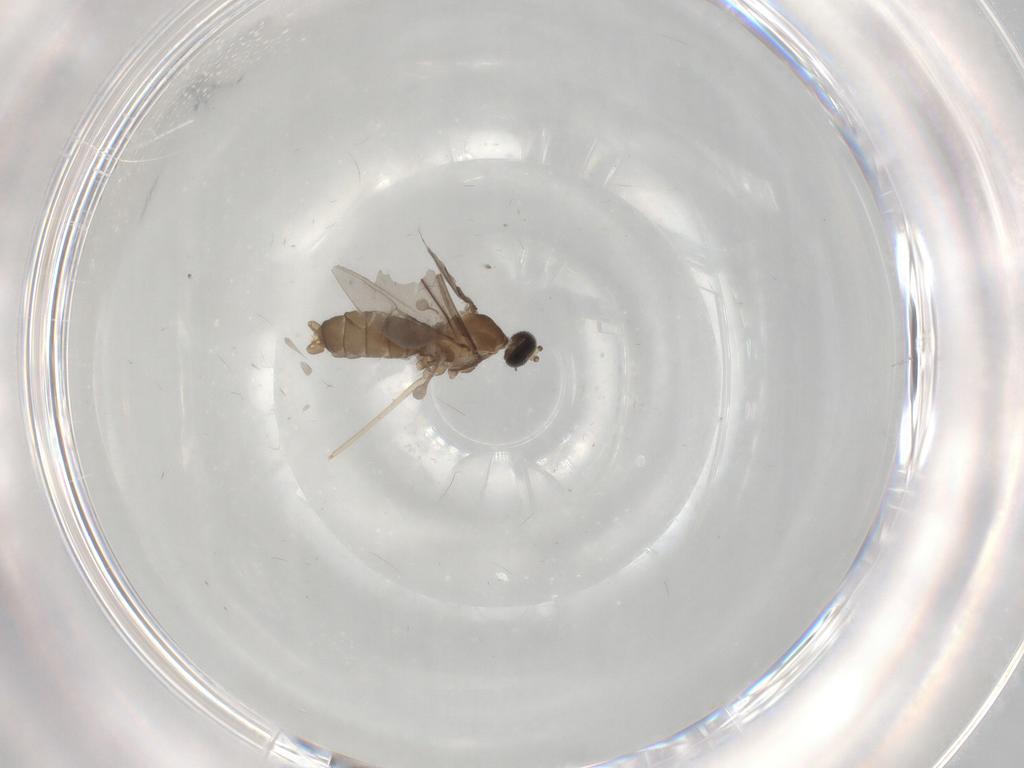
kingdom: Animalia
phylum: Arthropoda
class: Insecta
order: Diptera
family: Cecidomyiidae
